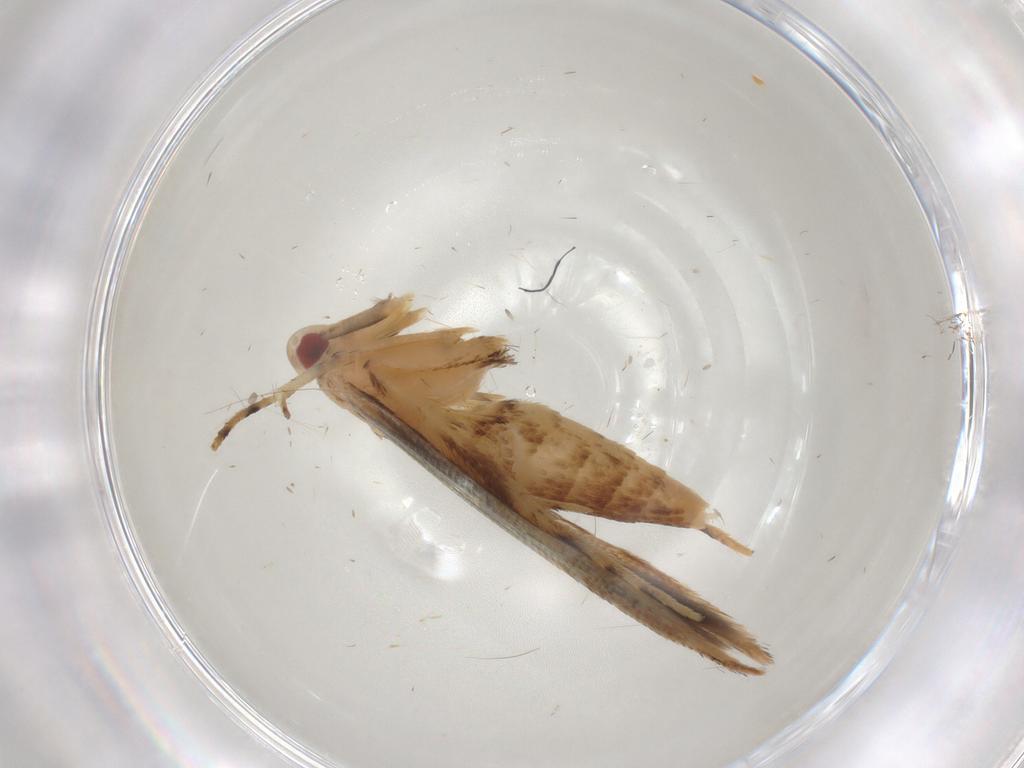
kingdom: Animalia
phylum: Arthropoda
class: Insecta
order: Lepidoptera
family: Cosmopterigidae
